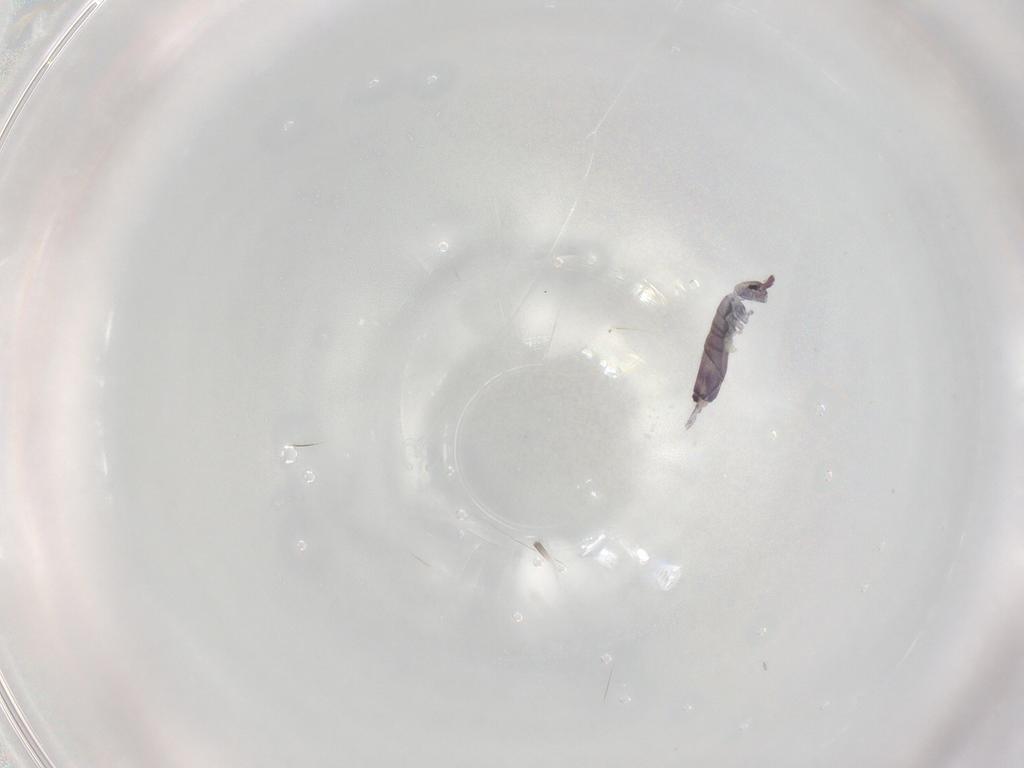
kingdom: Animalia
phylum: Arthropoda
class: Collembola
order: Entomobryomorpha
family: Entomobryidae
